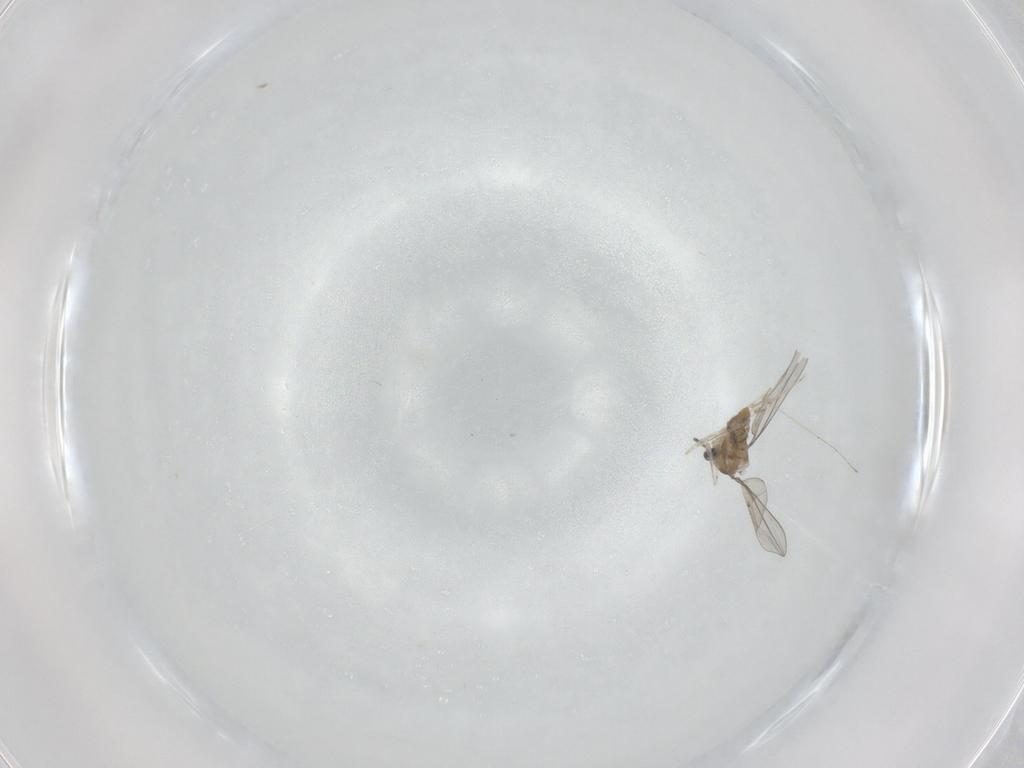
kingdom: Animalia
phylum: Arthropoda
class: Insecta
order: Diptera
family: Cecidomyiidae
